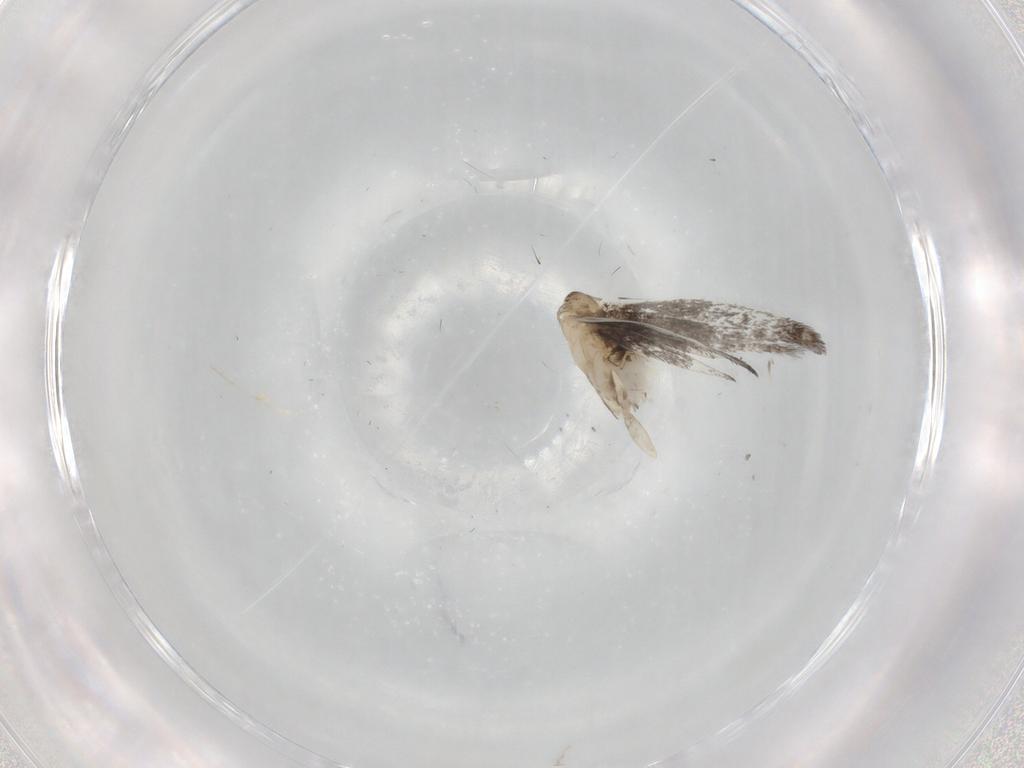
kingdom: Animalia
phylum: Arthropoda
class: Insecta
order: Lepidoptera
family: Gracillariidae
